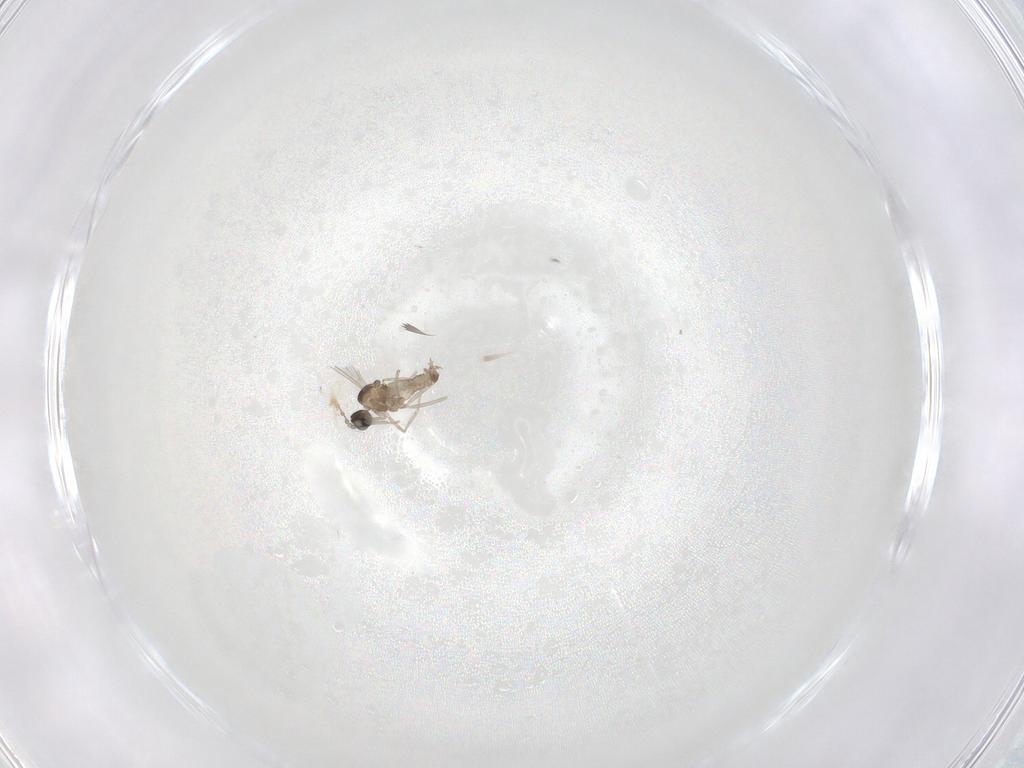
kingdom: Animalia
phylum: Arthropoda
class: Insecta
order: Diptera
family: Cecidomyiidae
